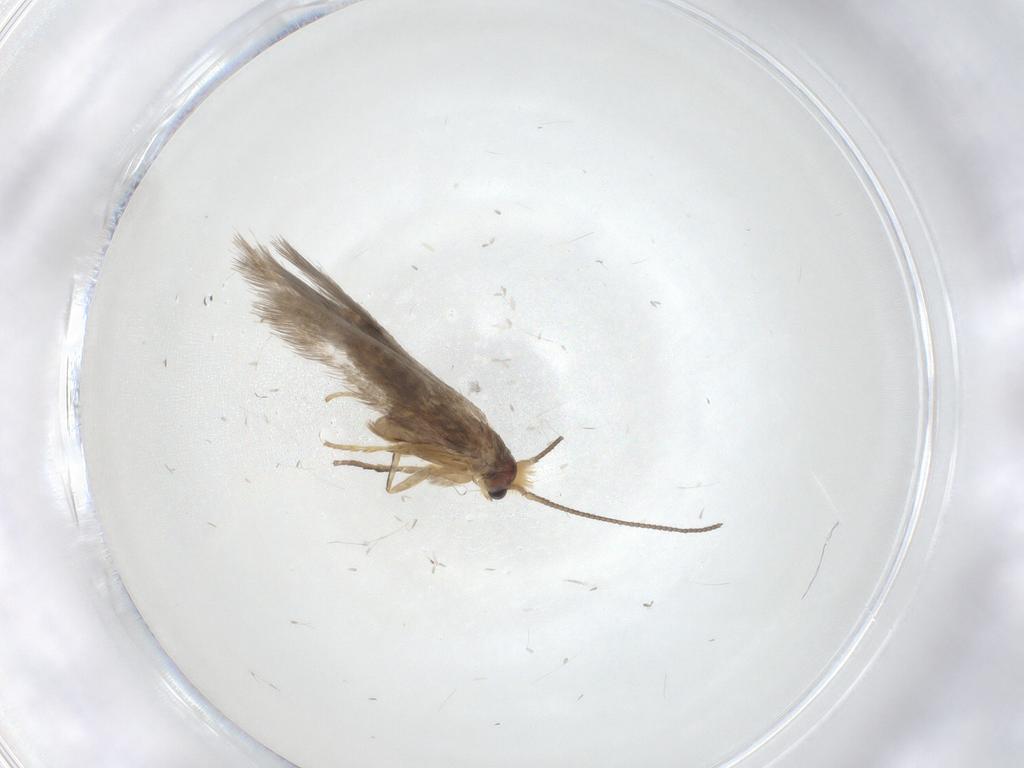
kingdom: Animalia
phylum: Arthropoda
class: Insecta
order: Lepidoptera
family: Nepticulidae
